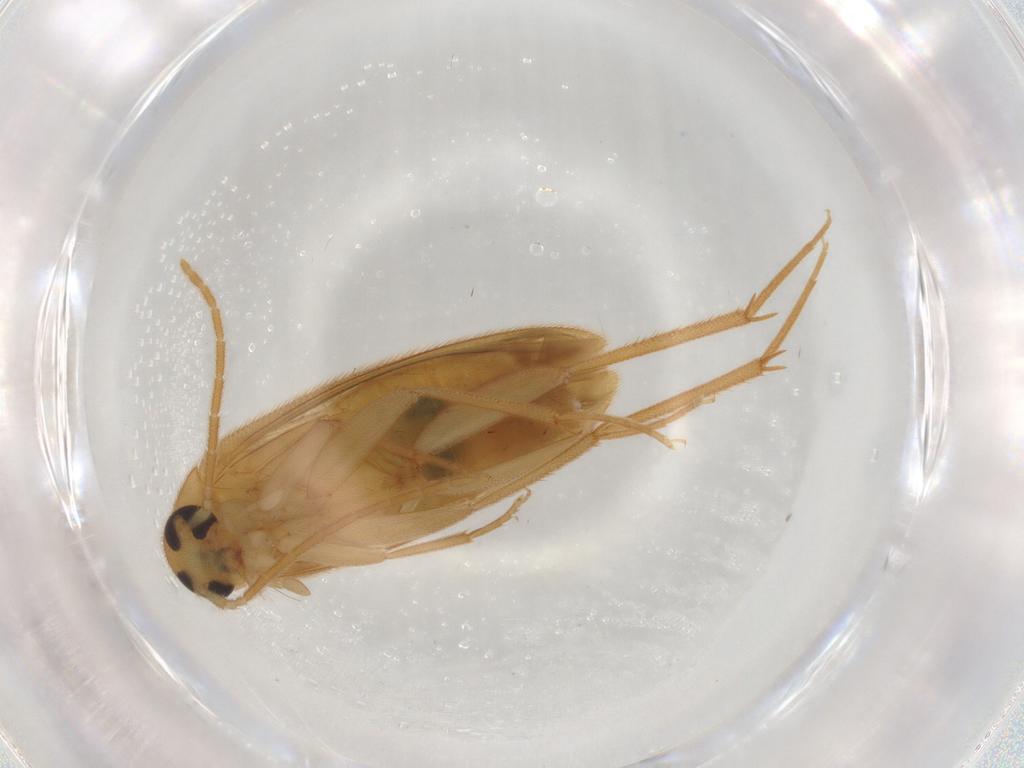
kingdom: Animalia
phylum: Arthropoda
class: Insecta
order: Coleoptera
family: Scraptiidae
